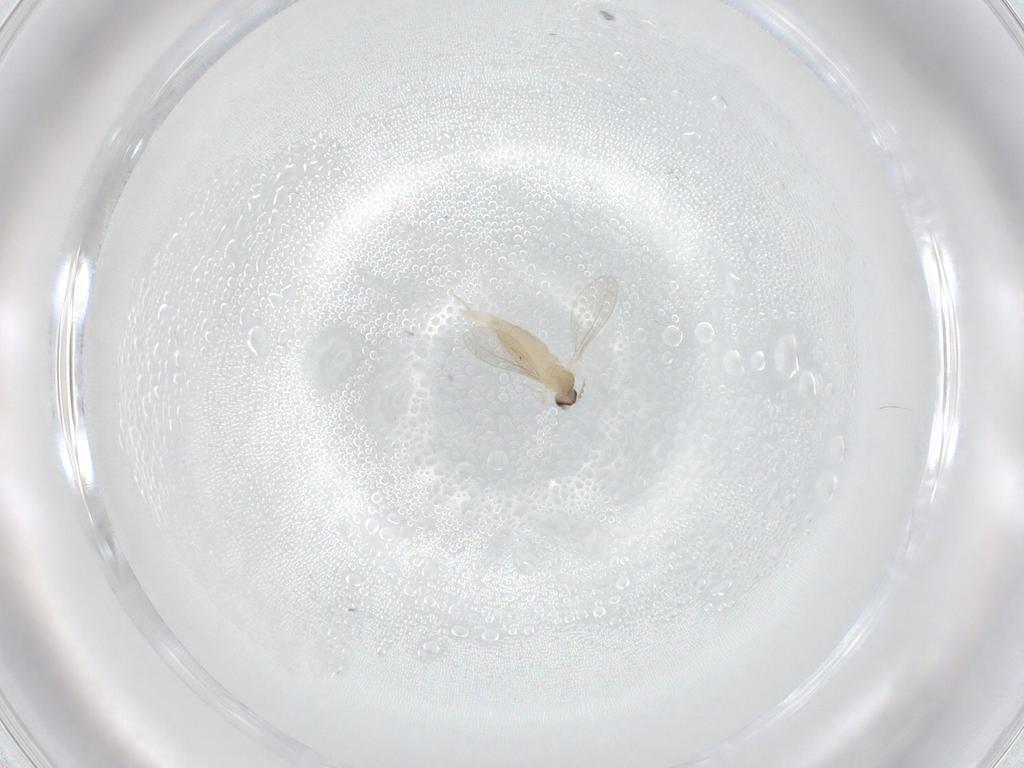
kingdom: Animalia
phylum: Arthropoda
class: Insecta
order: Diptera
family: Cecidomyiidae
